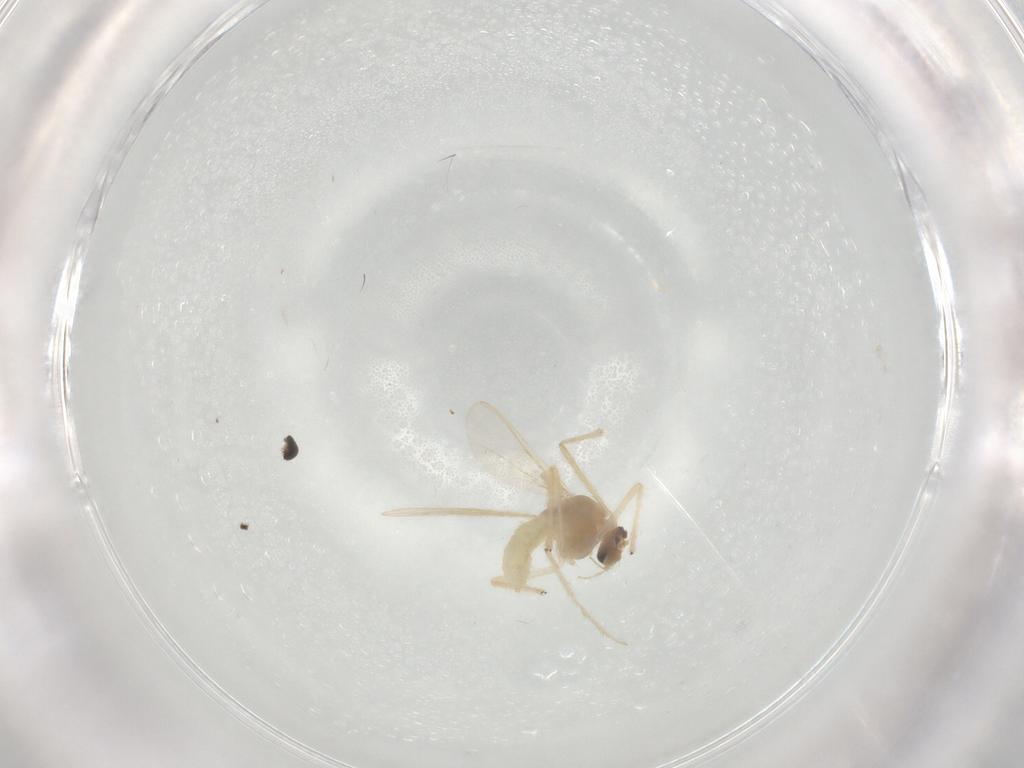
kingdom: Animalia
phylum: Arthropoda
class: Insecta
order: Diptera
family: Chironomidae
